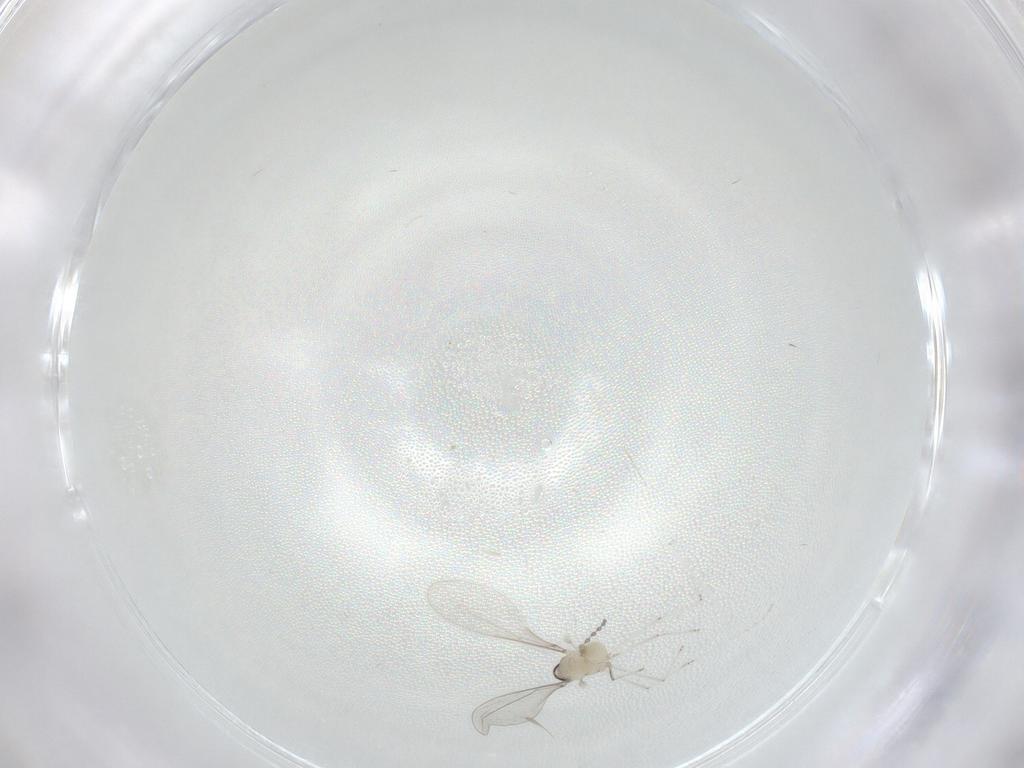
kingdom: Animalia
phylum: Arthropoda
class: Insecta
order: Diptera
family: Cecidomyiidae
